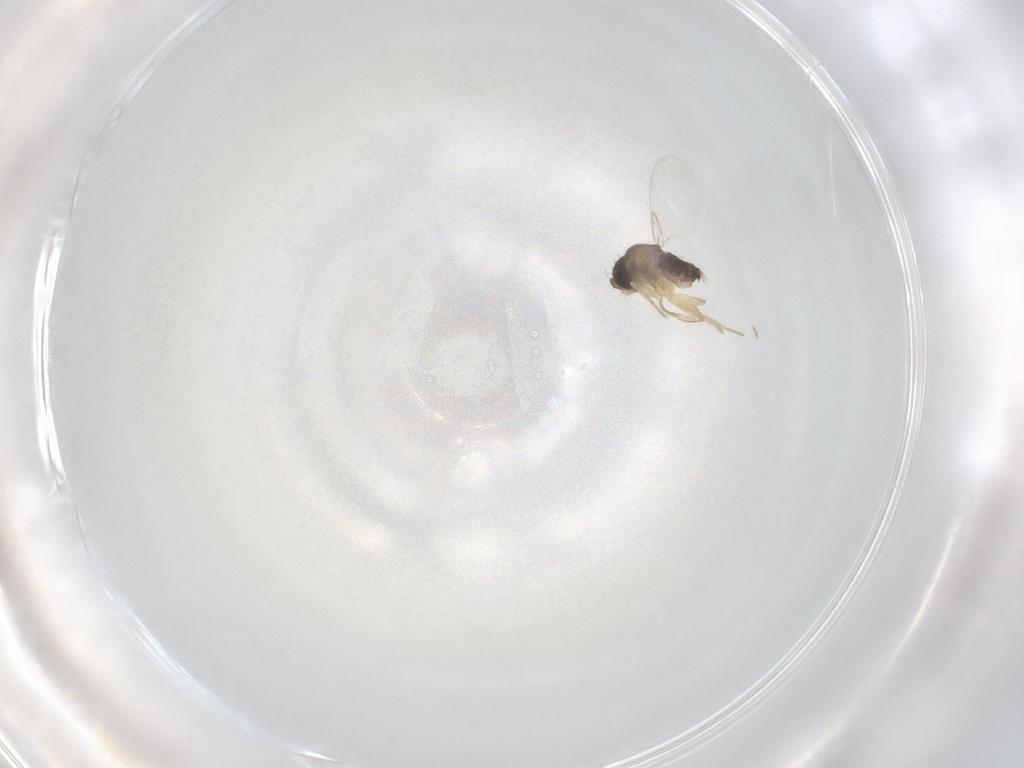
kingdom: Animalia
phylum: Arthropoda
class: Insecta
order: Diptera
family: Phoridae
